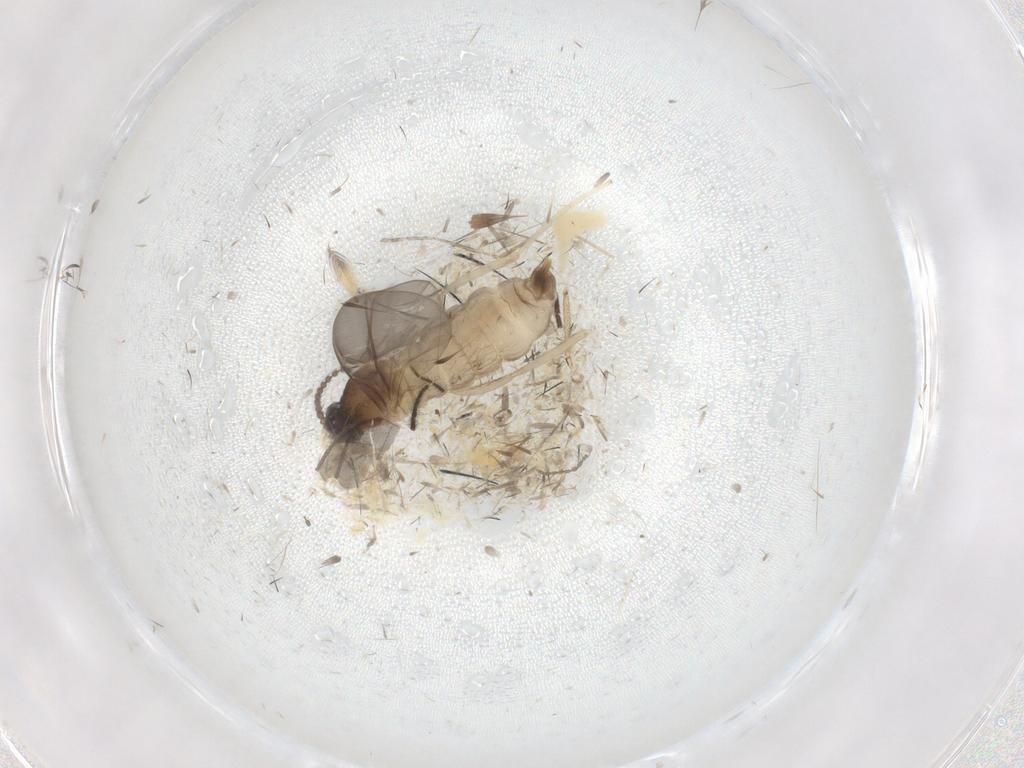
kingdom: Animalia
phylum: Arthropoda
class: Insecta
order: Diptera
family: Cecidomyiidae
